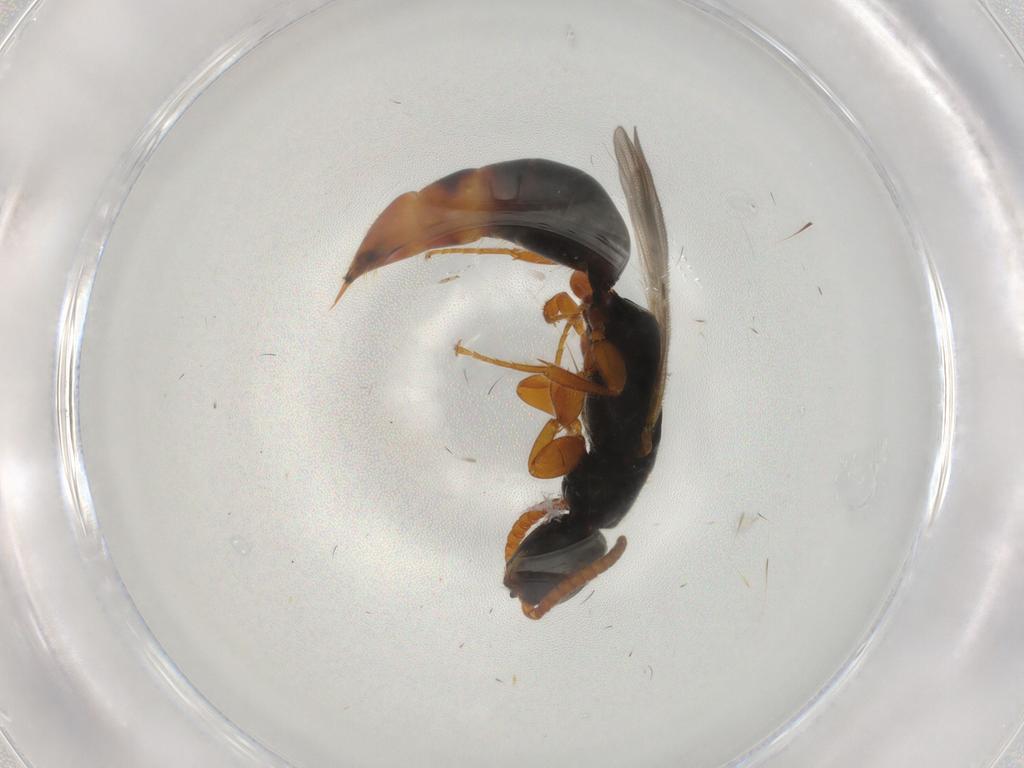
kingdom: Animalia
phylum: Arthropoda
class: Insecta
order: Hymenoptera
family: Bethylidae
